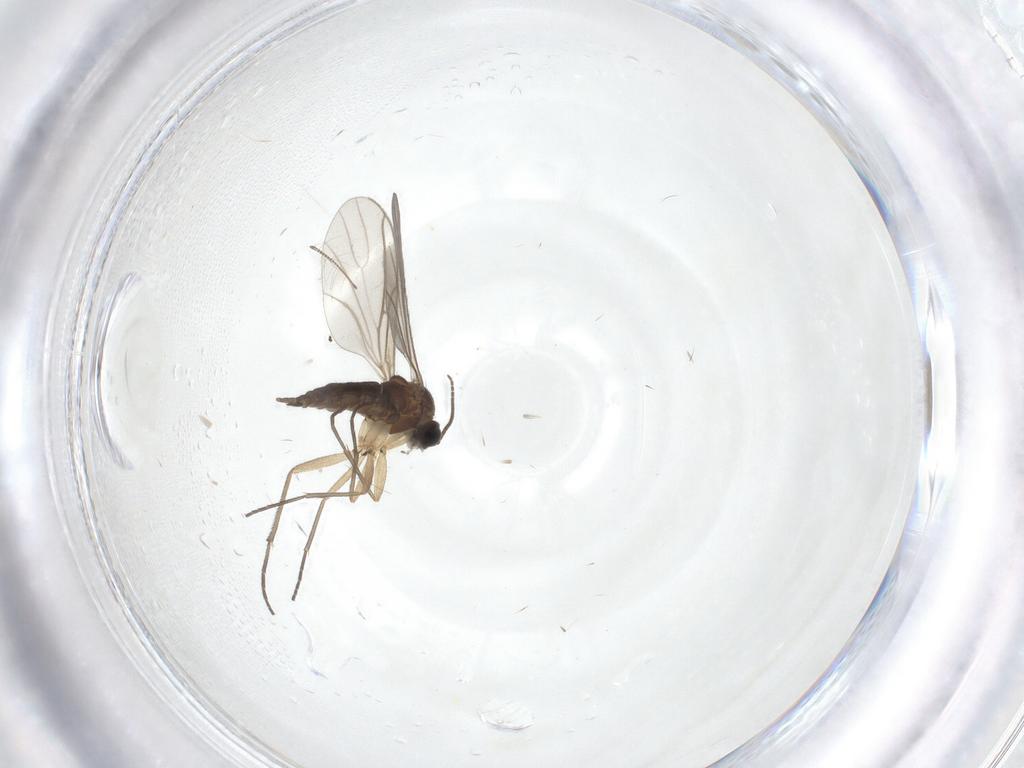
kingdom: Animalia
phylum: Arthropoda
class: Insecta
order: Diptera
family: Sciaridae
